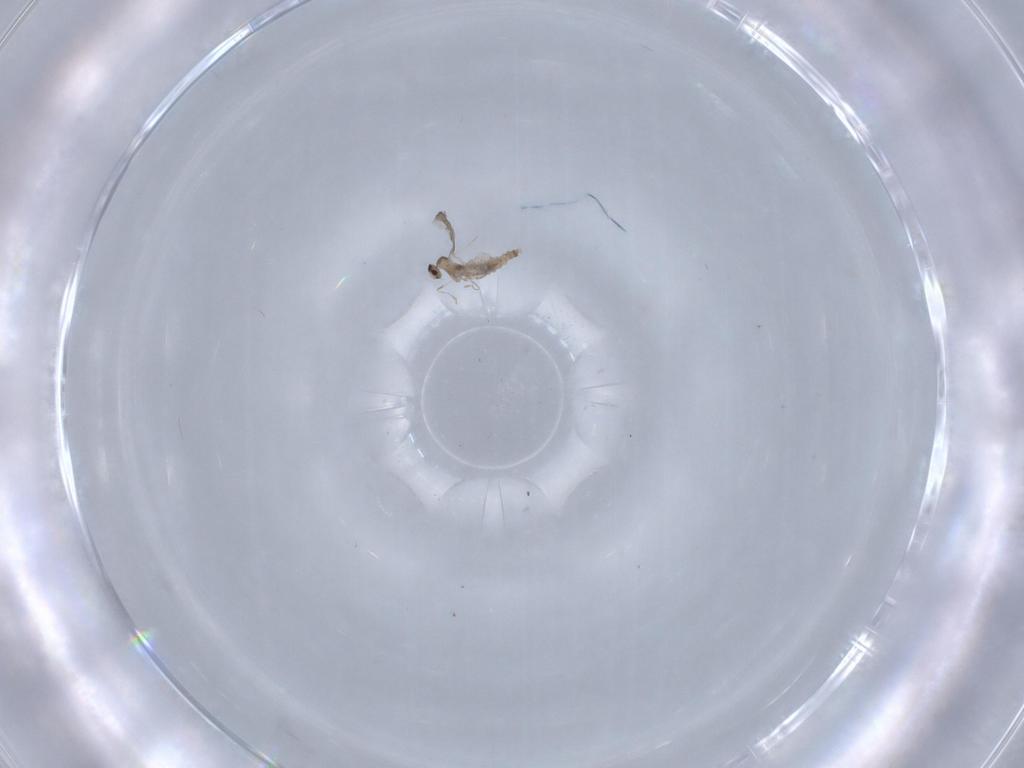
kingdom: Animalia
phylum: Arthropoda
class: Insecta
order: Diptera
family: Cecidomyiidae
